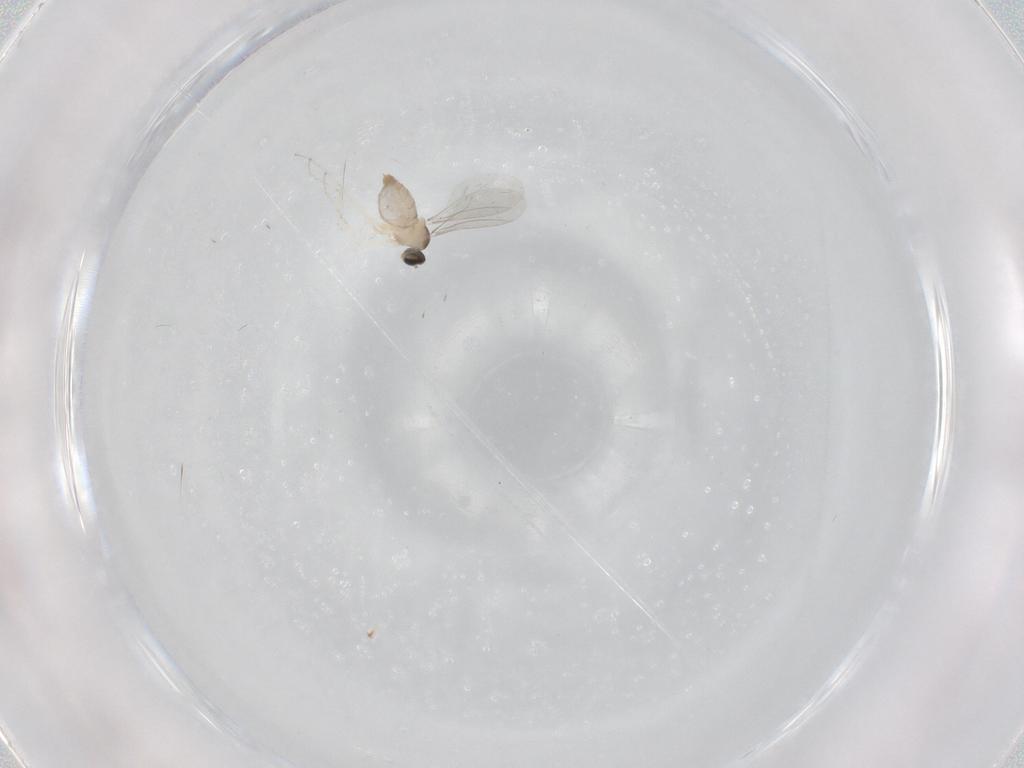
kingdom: Animalia
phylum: Arthropoda
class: Insecta
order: Diptera
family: Cecidomyiidae
